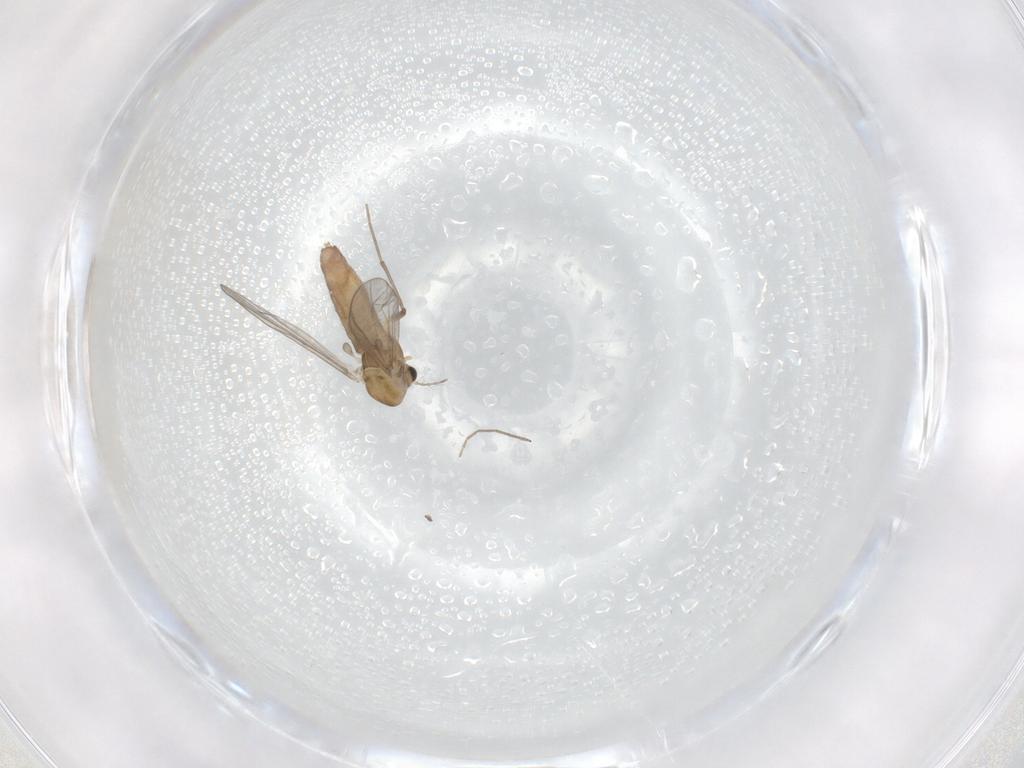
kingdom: Animalia
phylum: Arthropoda
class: Insecta
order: Diptera
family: Chironomidae
